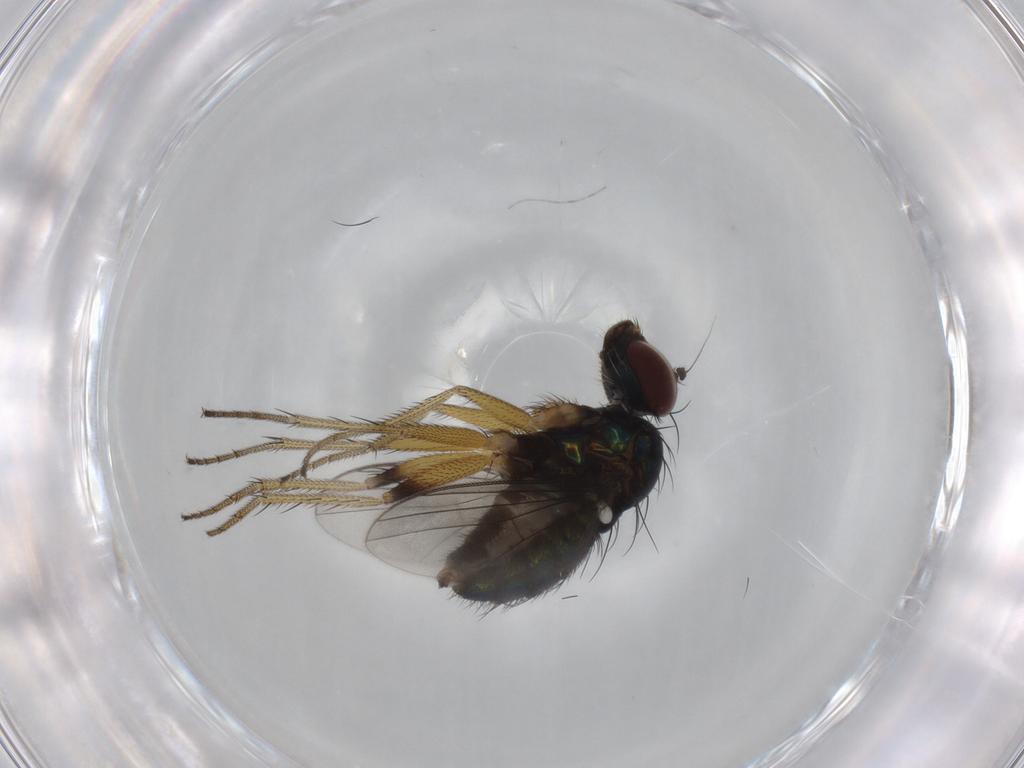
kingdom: Animalia
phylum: Arthropoda
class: Insecta
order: Diptera
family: Dolichopodidae
